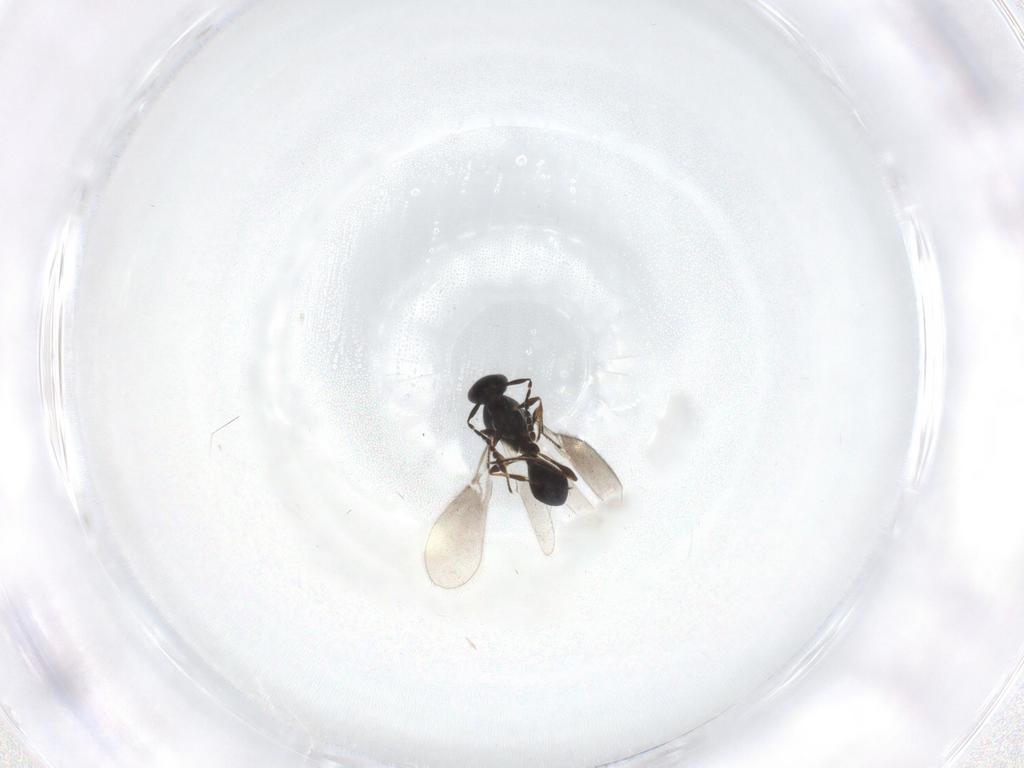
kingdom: Animalia
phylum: Arthropoda
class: Insecta
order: Hymenoptera
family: Platygastridae
